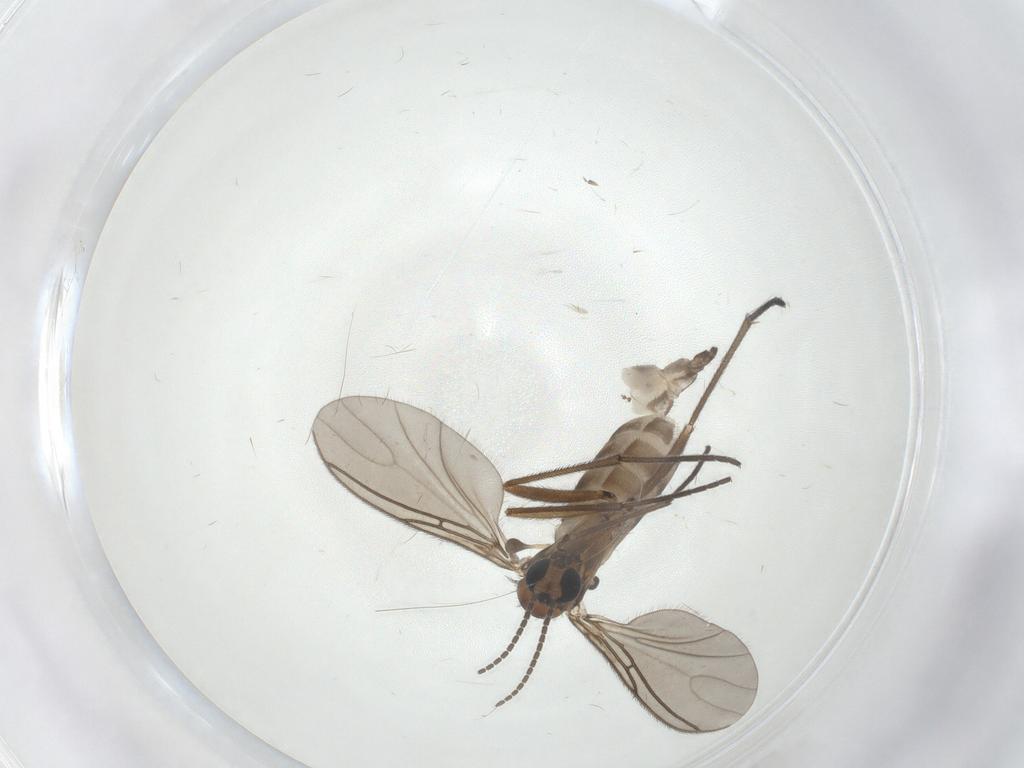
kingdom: Animalia
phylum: Arthropoda
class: Insecta
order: Diptera
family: Sciaridae
